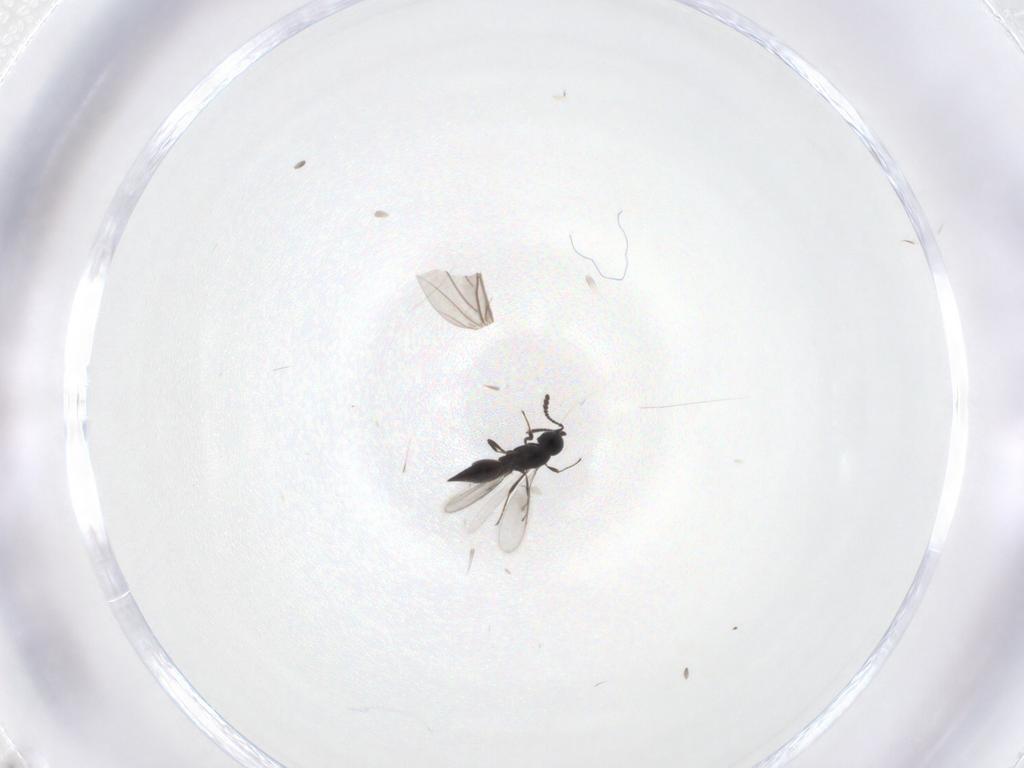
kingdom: Animalia
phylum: Arthropoda
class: Insecta
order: Hymenoptera
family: Scelionidae
